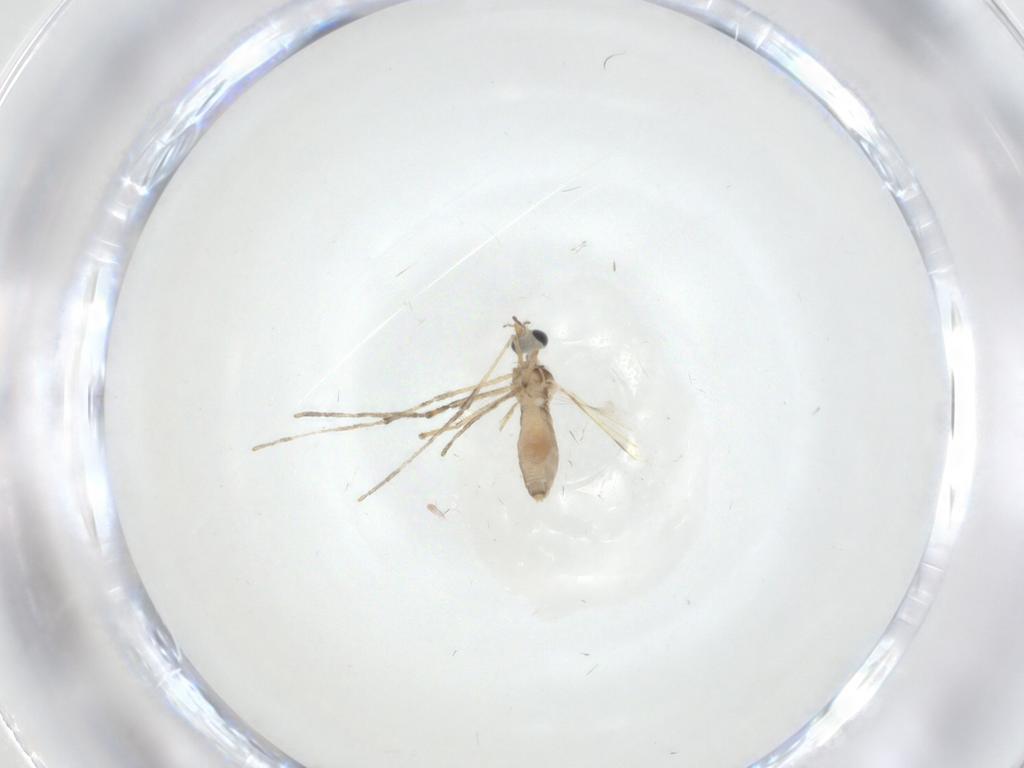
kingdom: Animalia
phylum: Arthropoda
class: Insecta
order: Diptera
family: Cecidomyiidae
